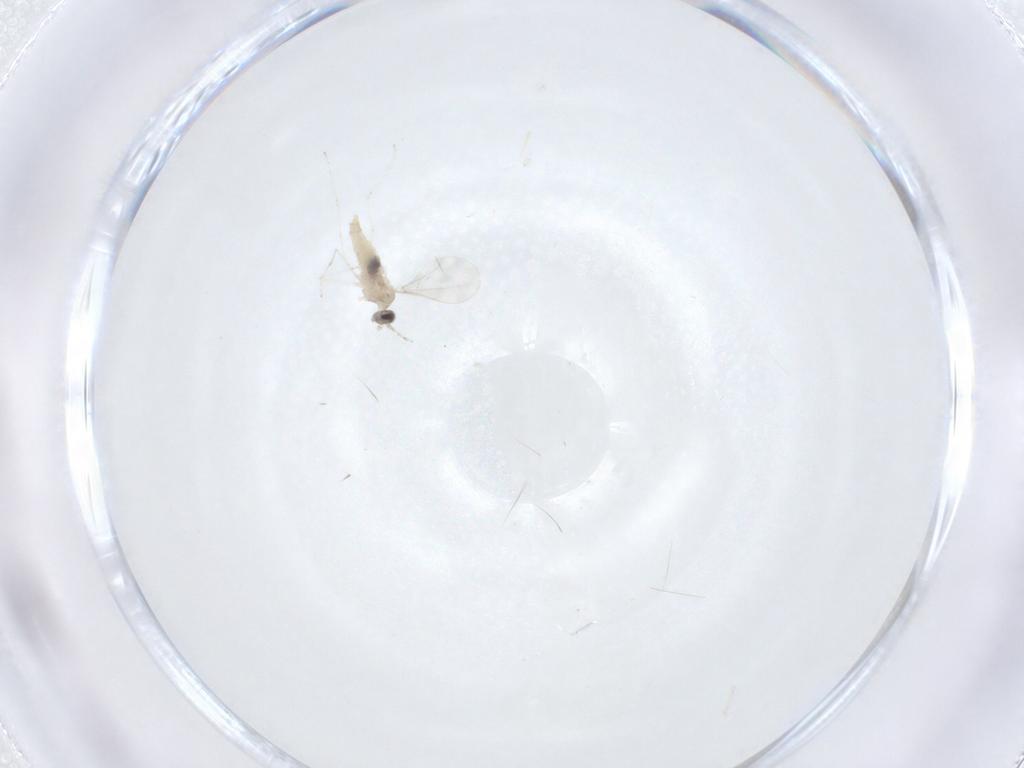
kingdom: Animalia
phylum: Arthropoda
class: Insecta
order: Diptera
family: Cecidomyiidae
